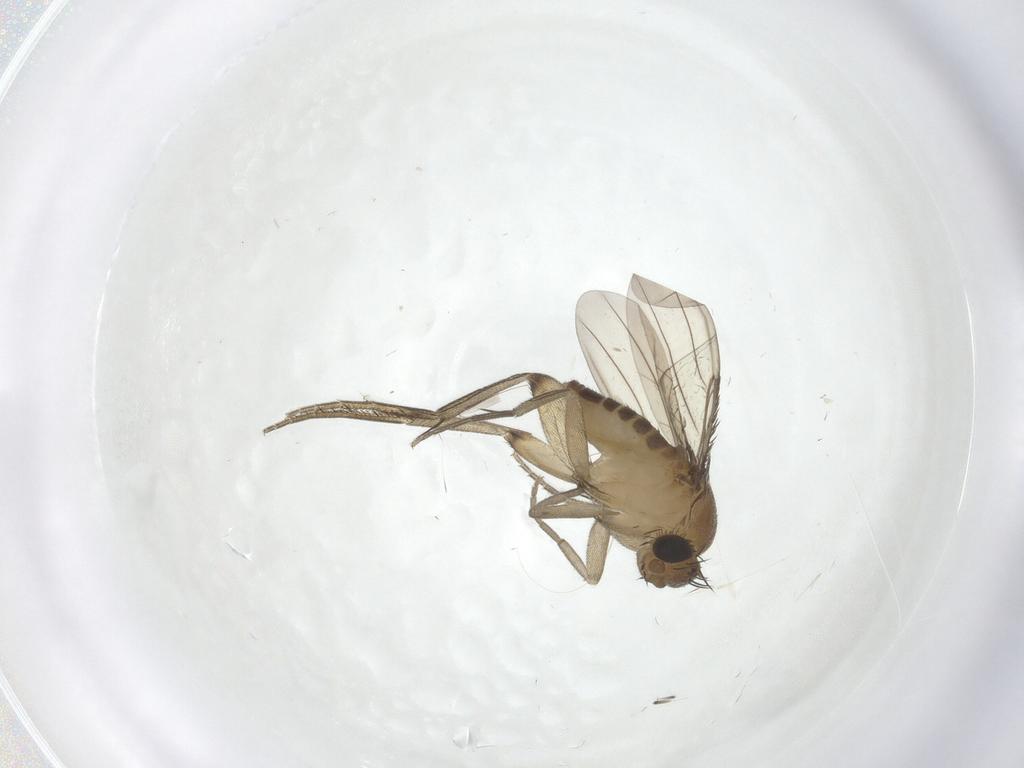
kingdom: Animalia
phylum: Arthropoda
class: Insecta
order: Diptera
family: Phoridae
